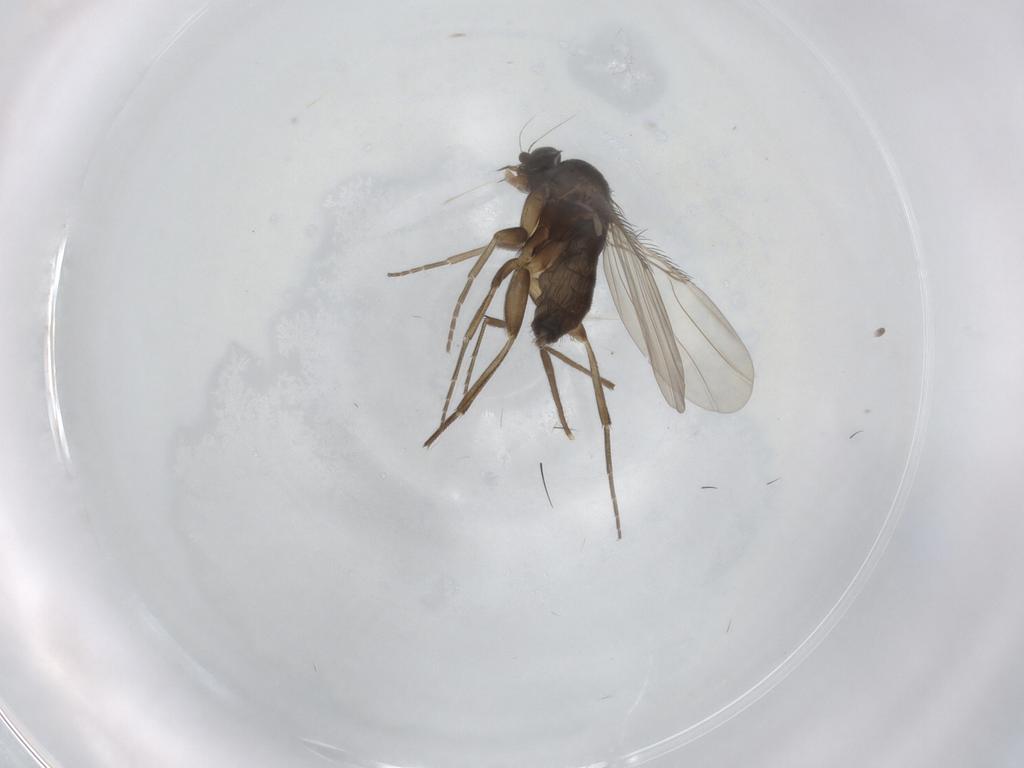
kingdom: Animalia
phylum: Arthropoda
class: Insecta
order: Diptera
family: Phoridae
